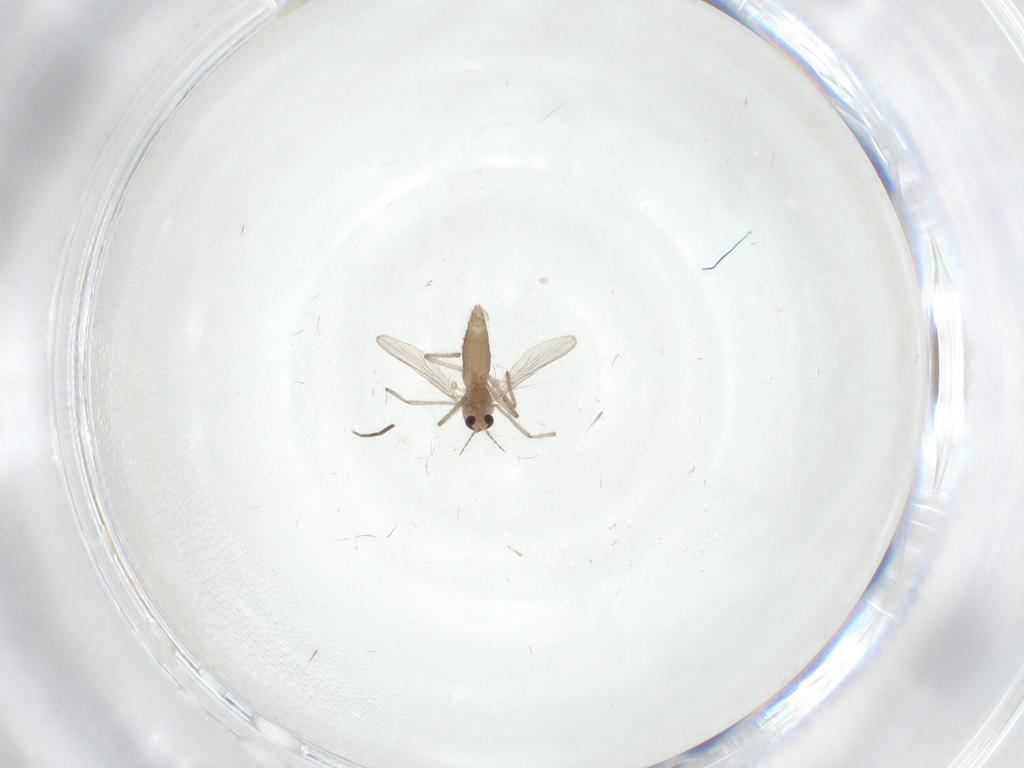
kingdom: Animalia
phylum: Arthropoda
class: Insecta
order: Diptera
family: Chironomidae
